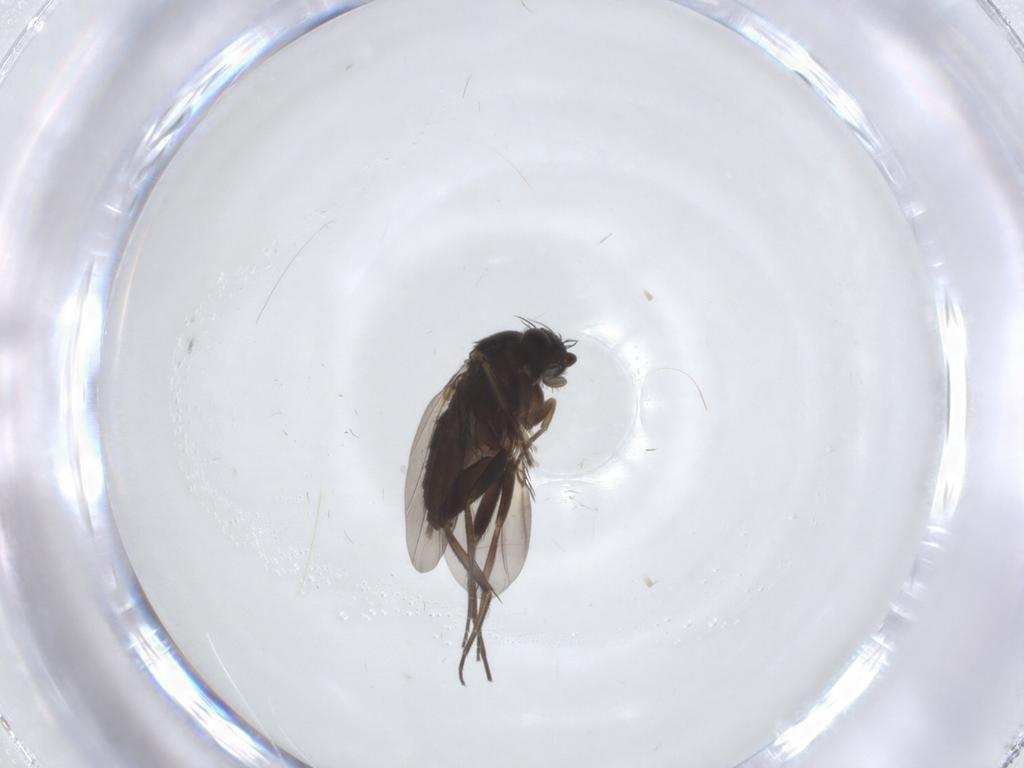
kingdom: Animalia
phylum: Arthropoda
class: Insecta
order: Diptera
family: Phoridae
